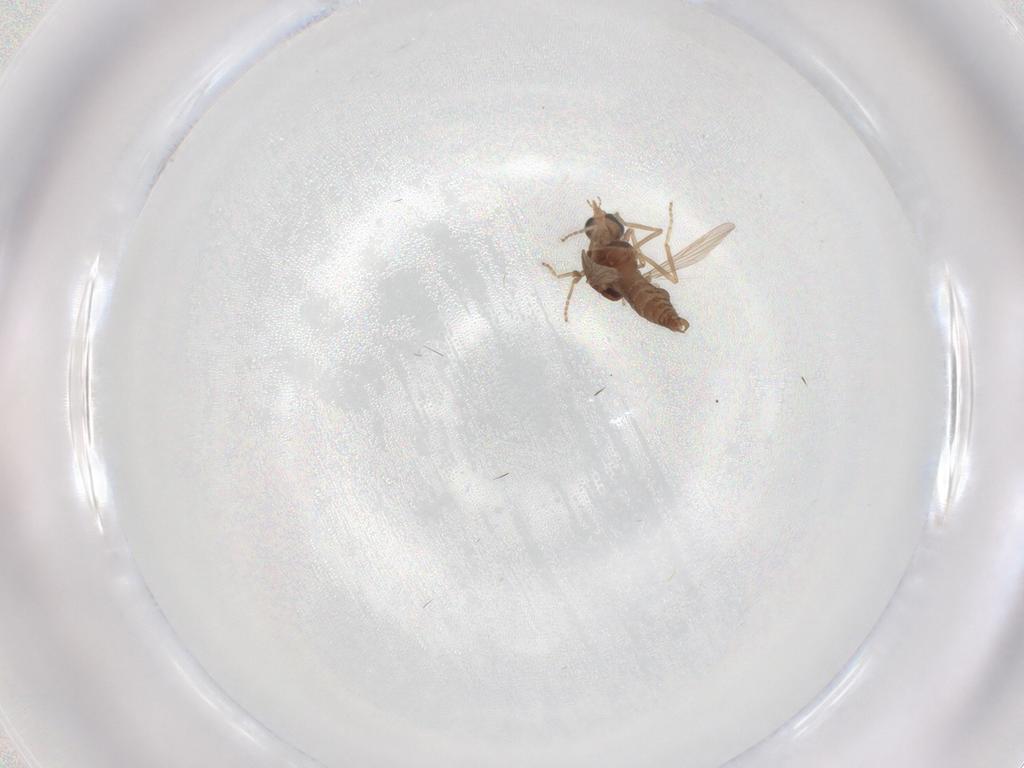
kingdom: Animalia
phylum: Arthropoda
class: Insecta
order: Diptera
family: Ceratopogonidae
